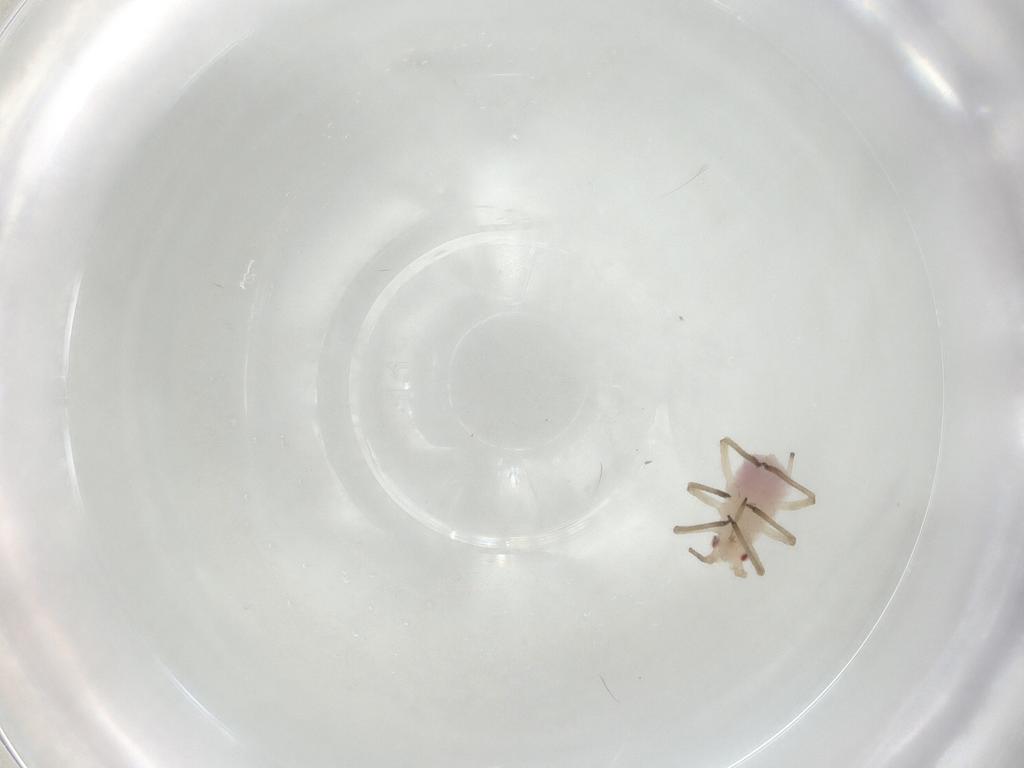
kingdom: Animalia
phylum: Arthropoda
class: Insecta
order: Hemiptera
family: Aphididae
